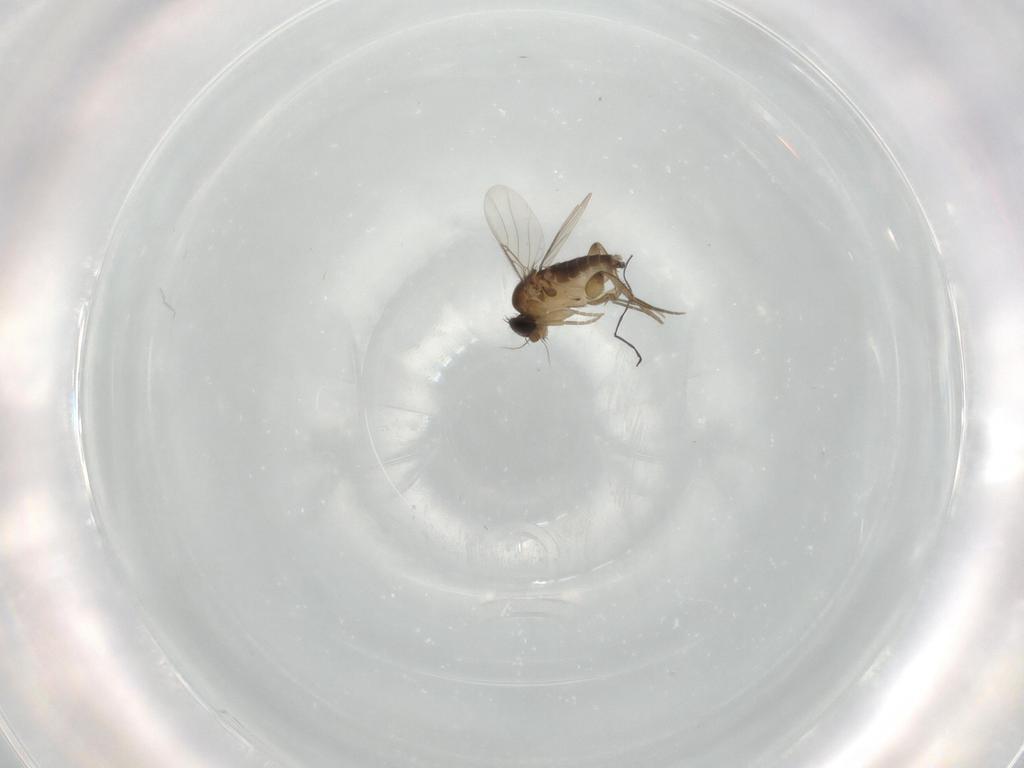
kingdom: Animalia
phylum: Arthropoda
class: Insecta
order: Diptera
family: Phoridae
